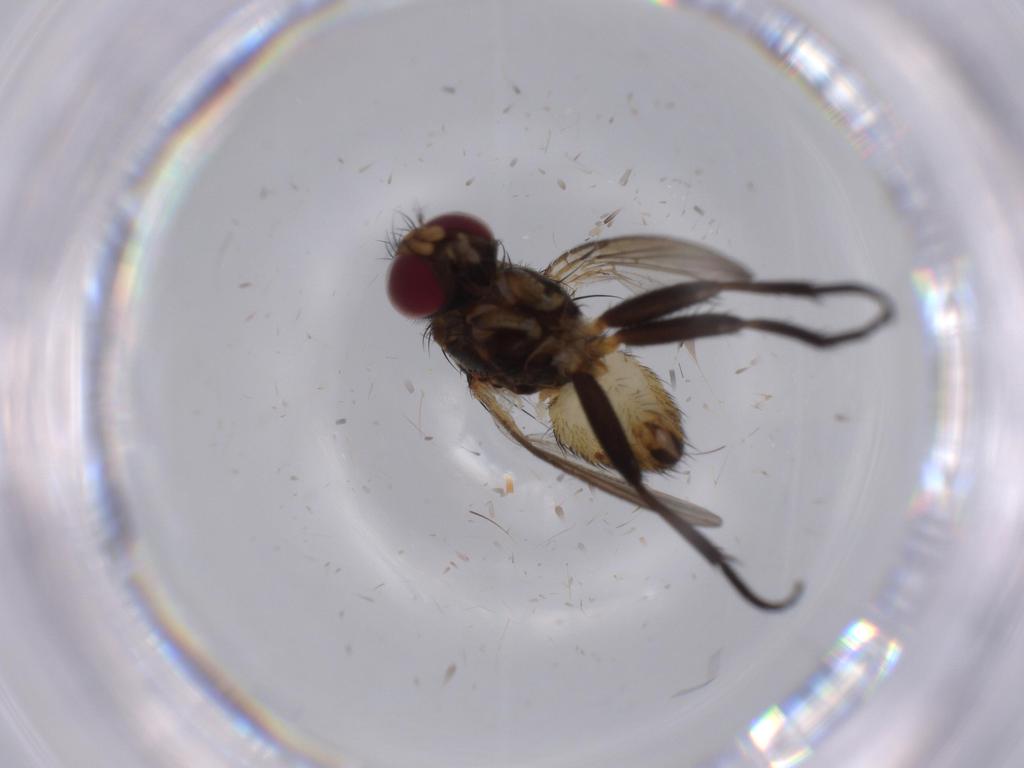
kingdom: Animalia
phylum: Arthropoda
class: Insecta
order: Diptera
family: Anthomyiidae
